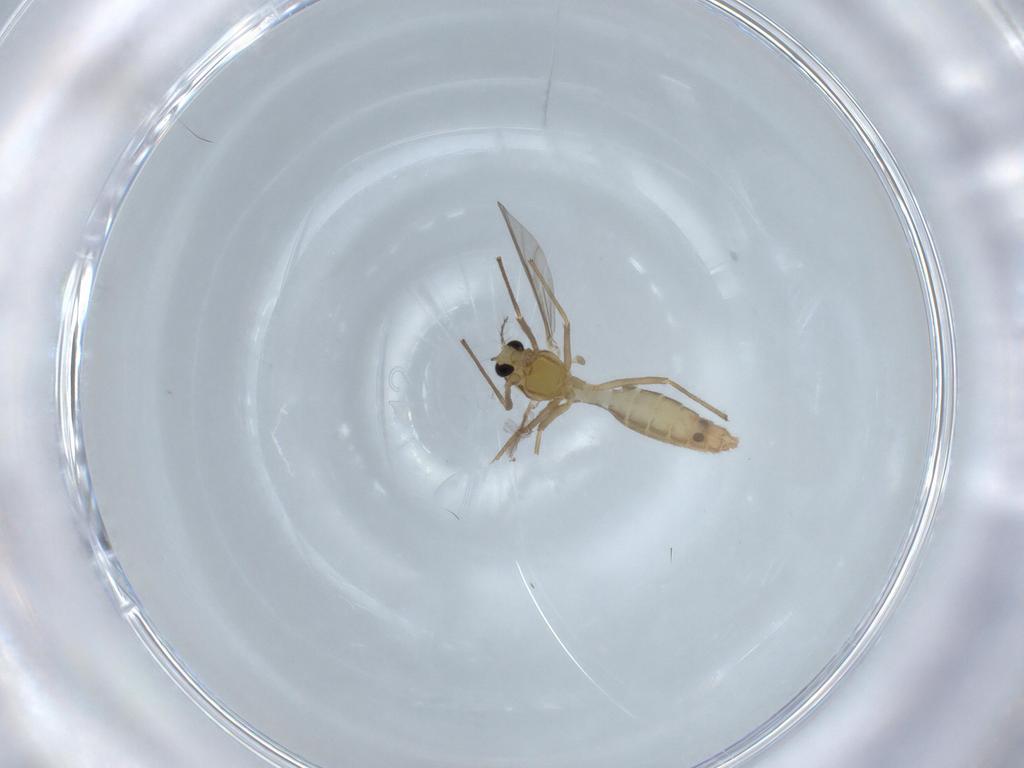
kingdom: Animalia
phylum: Arthropoda
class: Insecta
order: Diptera
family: Chironomidae
